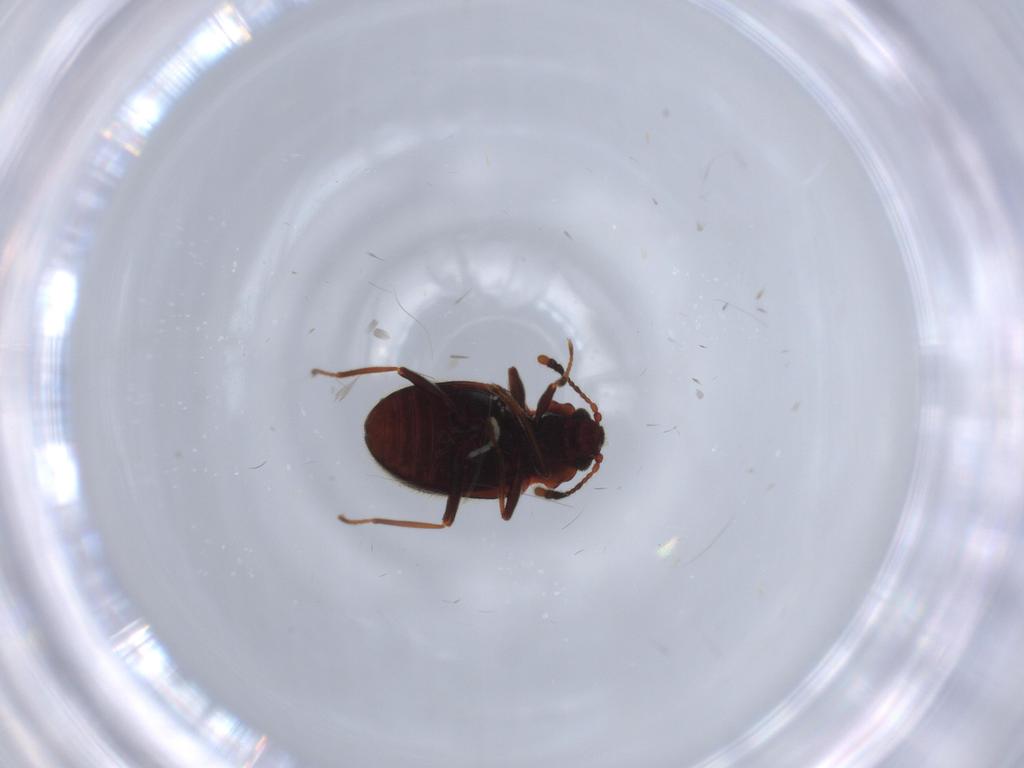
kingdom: Animalia
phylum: Arthropoda
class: Insecta
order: Coleoptera
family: Cryptophagidae
